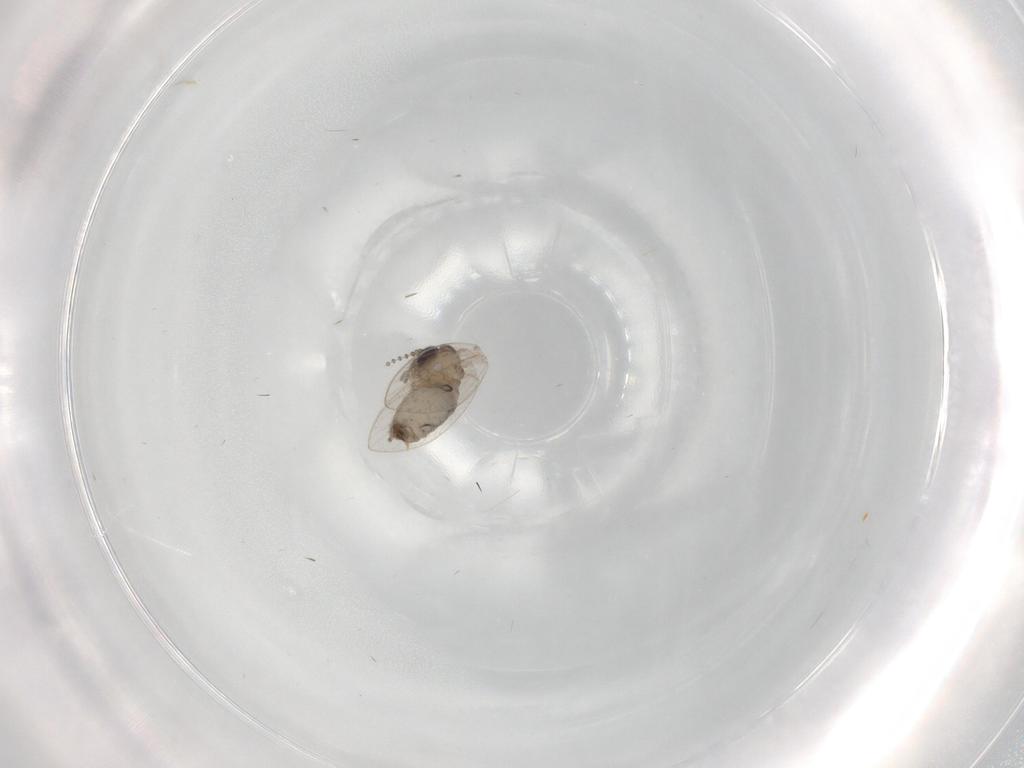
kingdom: Animalia
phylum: Arthropoda
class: Insecta
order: Diptera
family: Psychodidae
